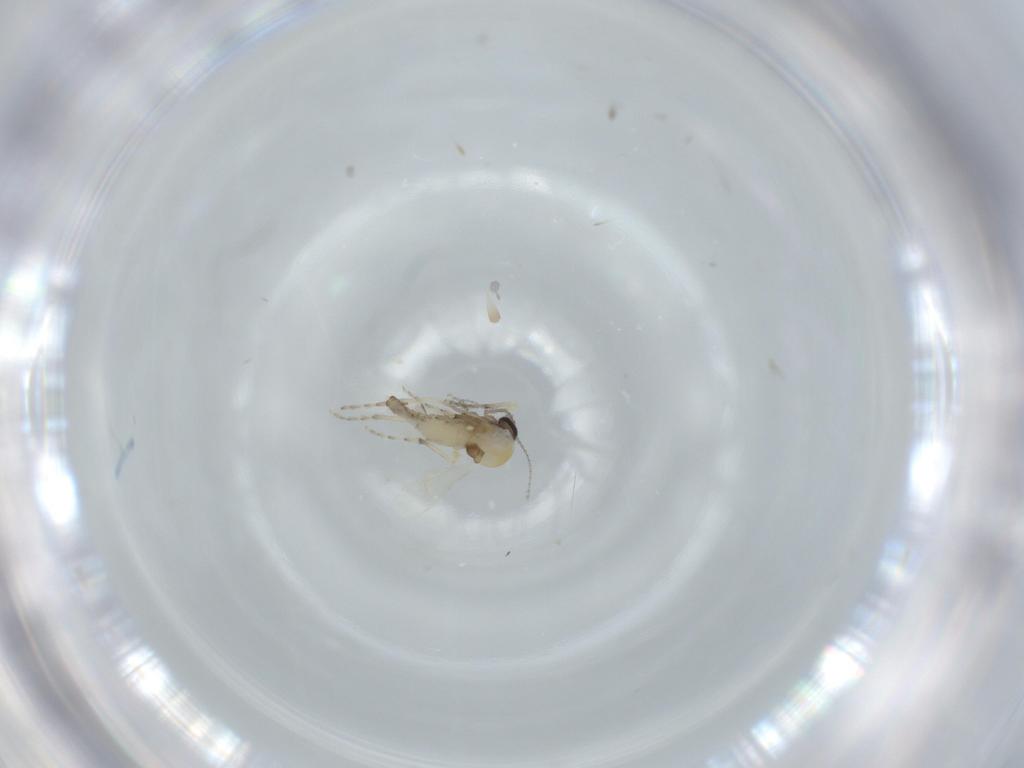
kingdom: Animalia
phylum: Arthropoda
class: Insecta
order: Diptera
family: Ceratopogonidae
